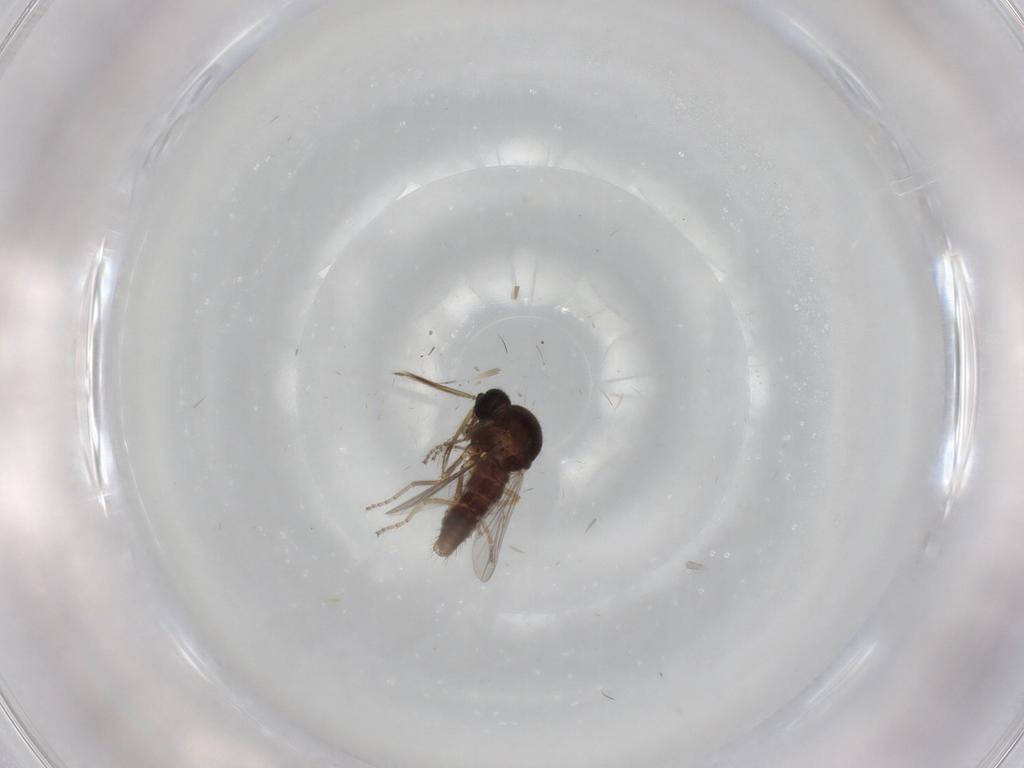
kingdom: Animalia
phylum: Arthropoda
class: Insecta
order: Diptera
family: Ceratopogonidae
